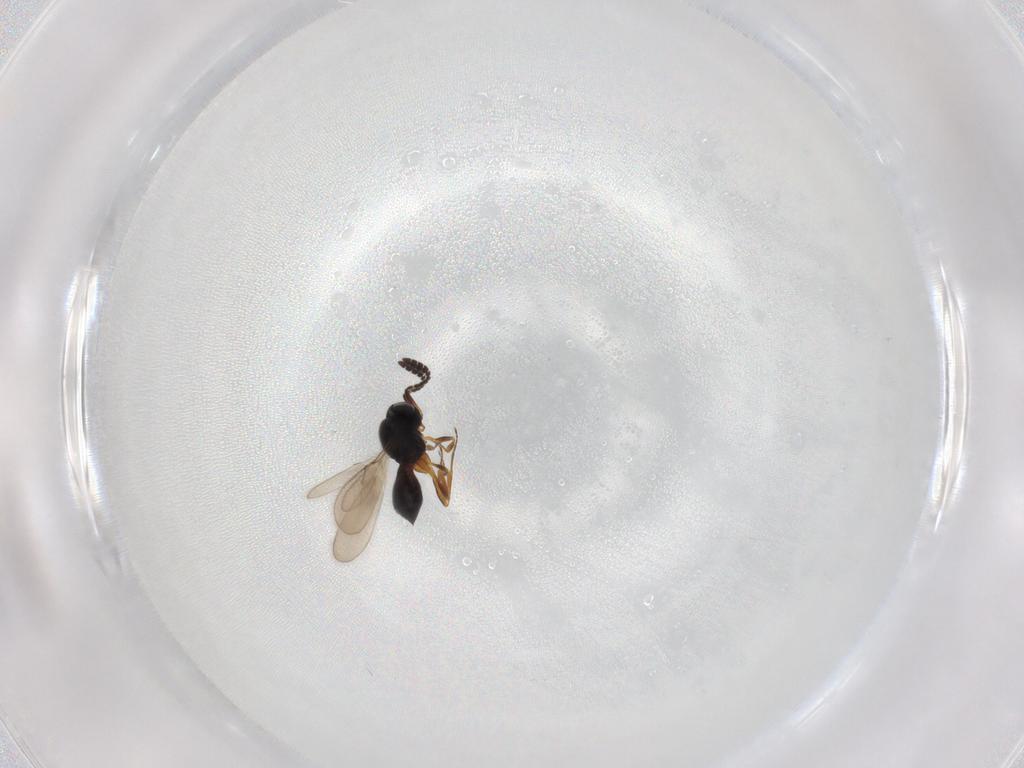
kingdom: Animalia
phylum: Arthropoda
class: Insecta
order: Hymenoptera
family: Scelionidae
